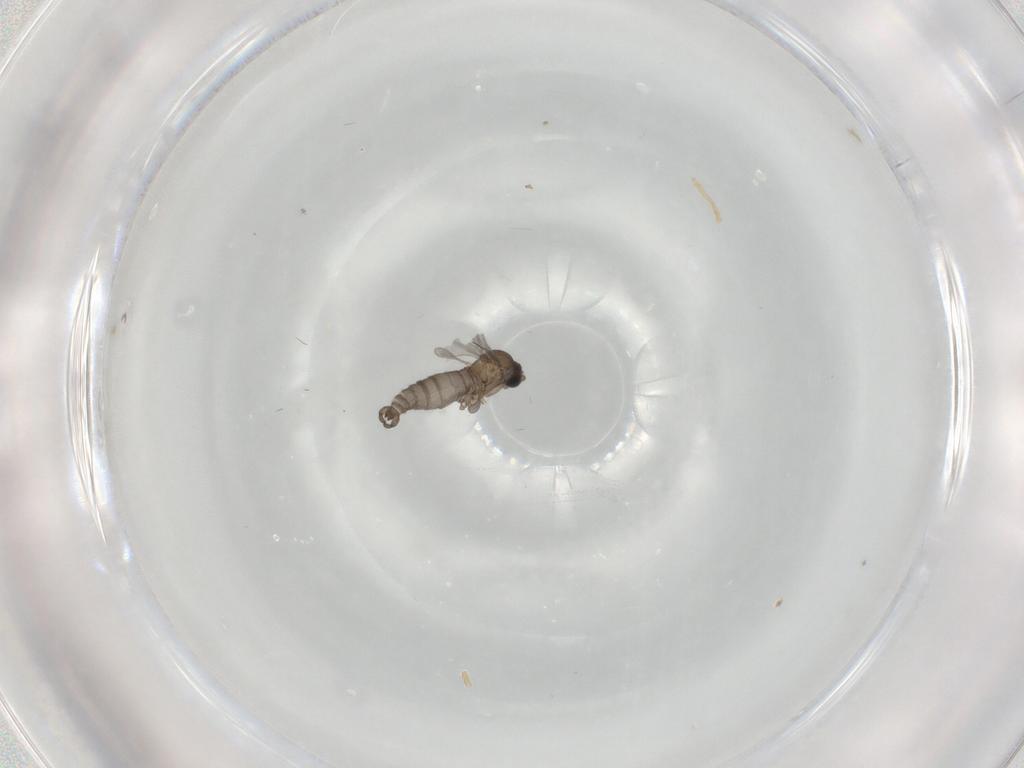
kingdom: Animalia
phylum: Arthropoda
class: Insecta
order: Diptera
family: Sciaridae
